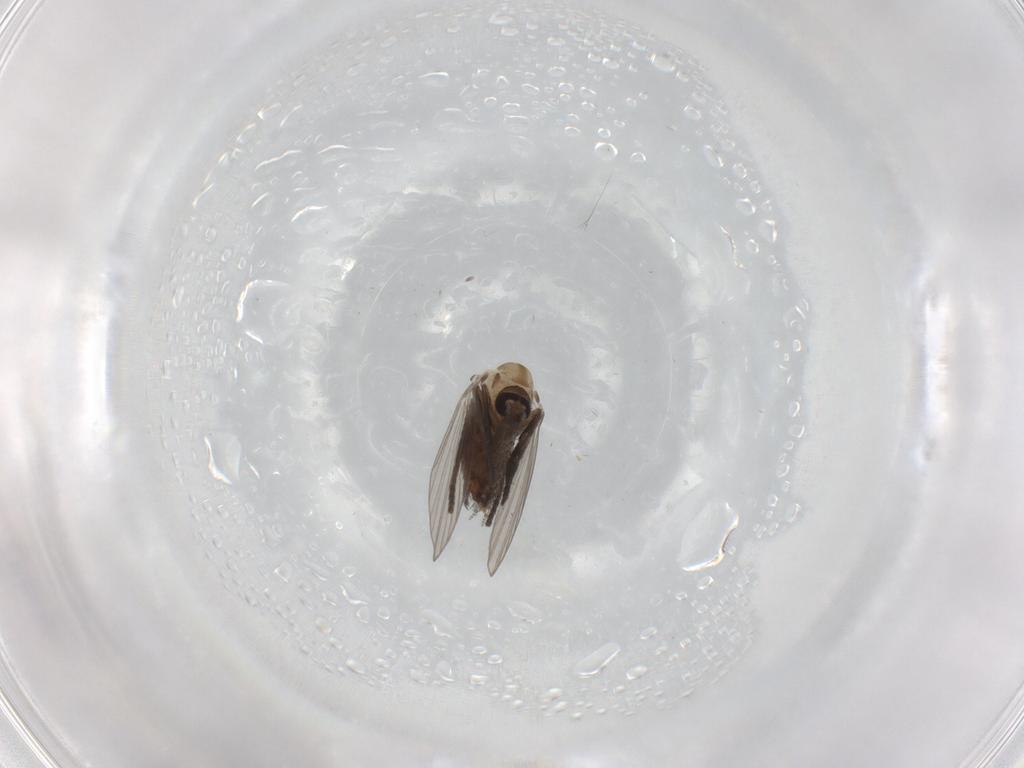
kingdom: Animalia
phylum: Arthropoda
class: Insecta
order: Diptera
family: Psychodidae
